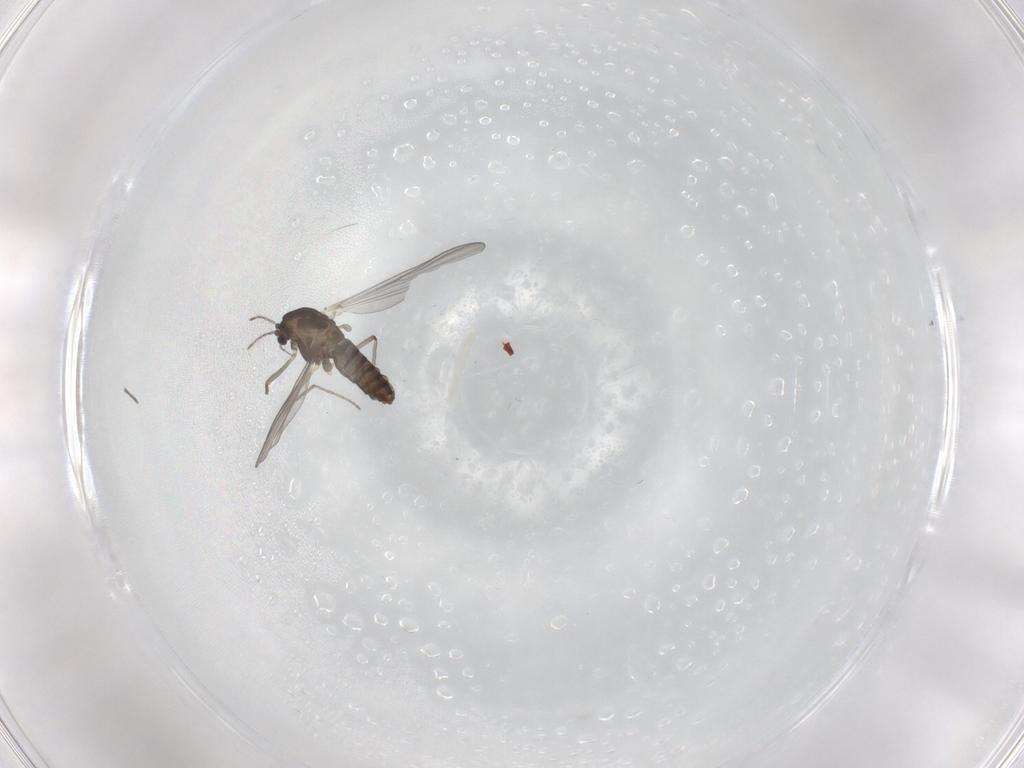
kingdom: Animalia
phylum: Arthropoda
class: Insecta
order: Diptera
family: Chironomidae
